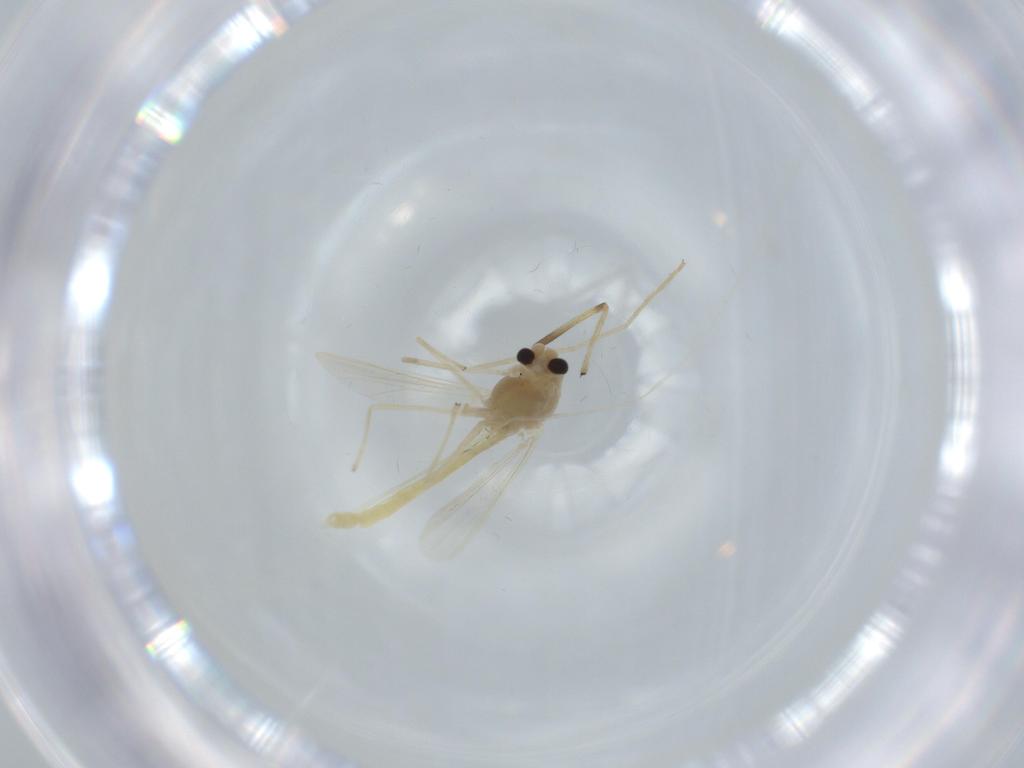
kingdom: Animalia
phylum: Arthropoda
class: Insecta
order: Diptera
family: Chironomidae
